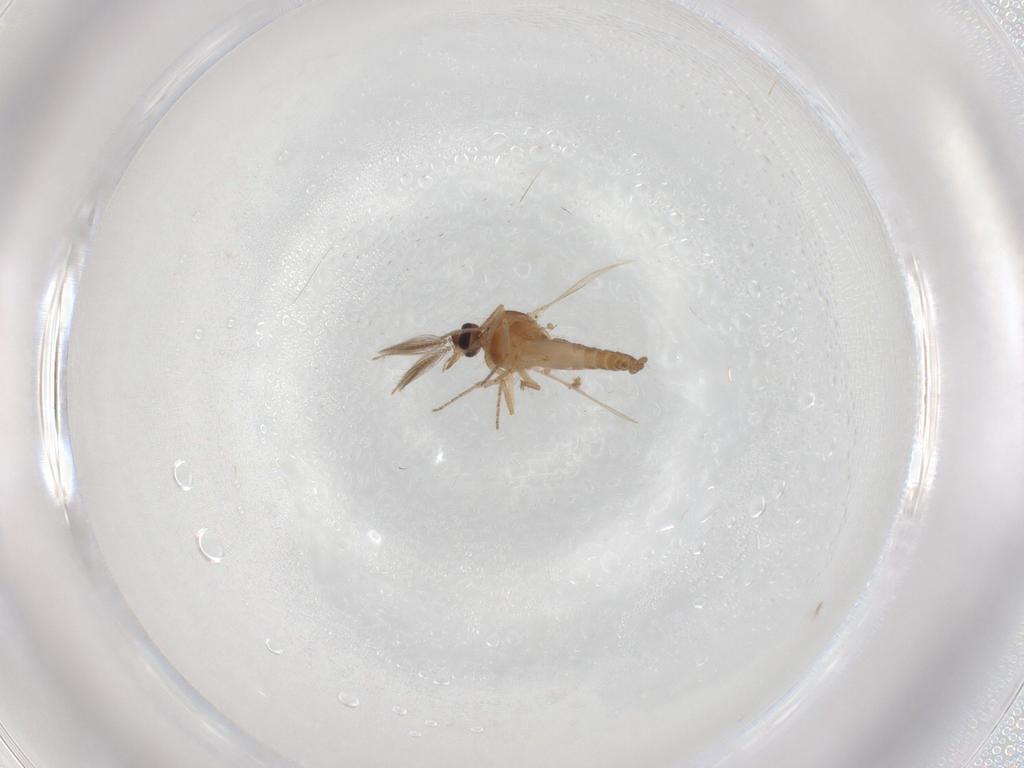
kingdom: Animalia
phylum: Arthropoda
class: Insecta
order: Diptera
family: Ceratopogonidae
